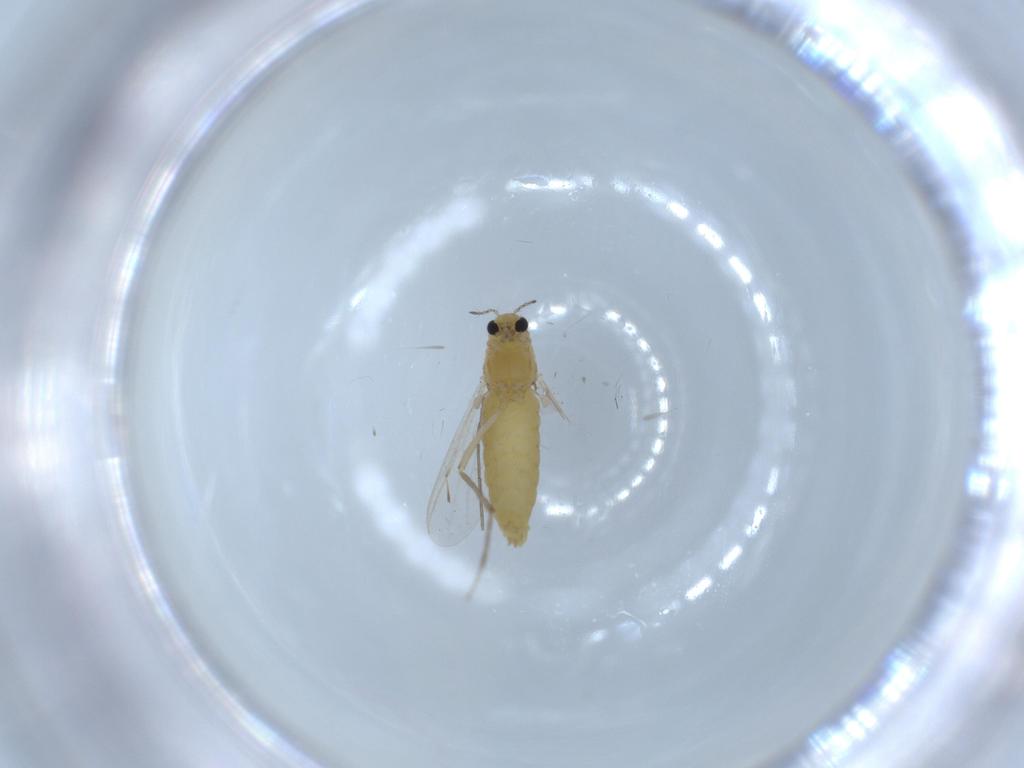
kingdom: Animalia
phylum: Arthropoda
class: Insecta
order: Diptera
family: Chironomidae
